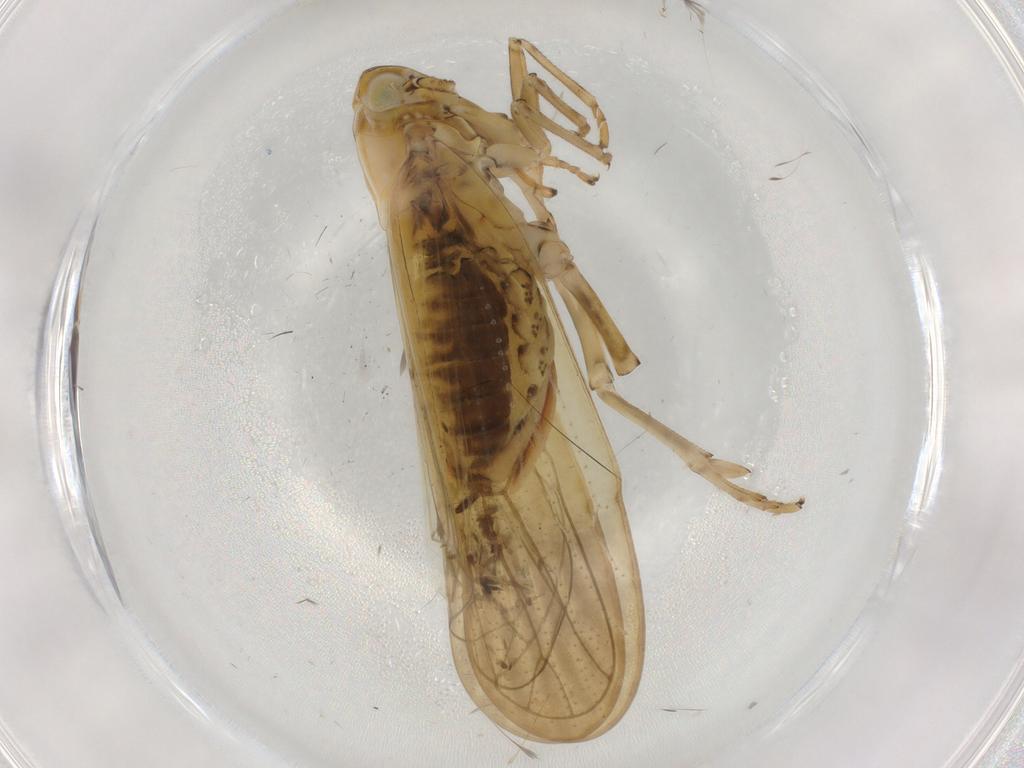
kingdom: Animalia
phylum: Arthropoda
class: Insecta
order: Hemiptera
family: Delphacidae
